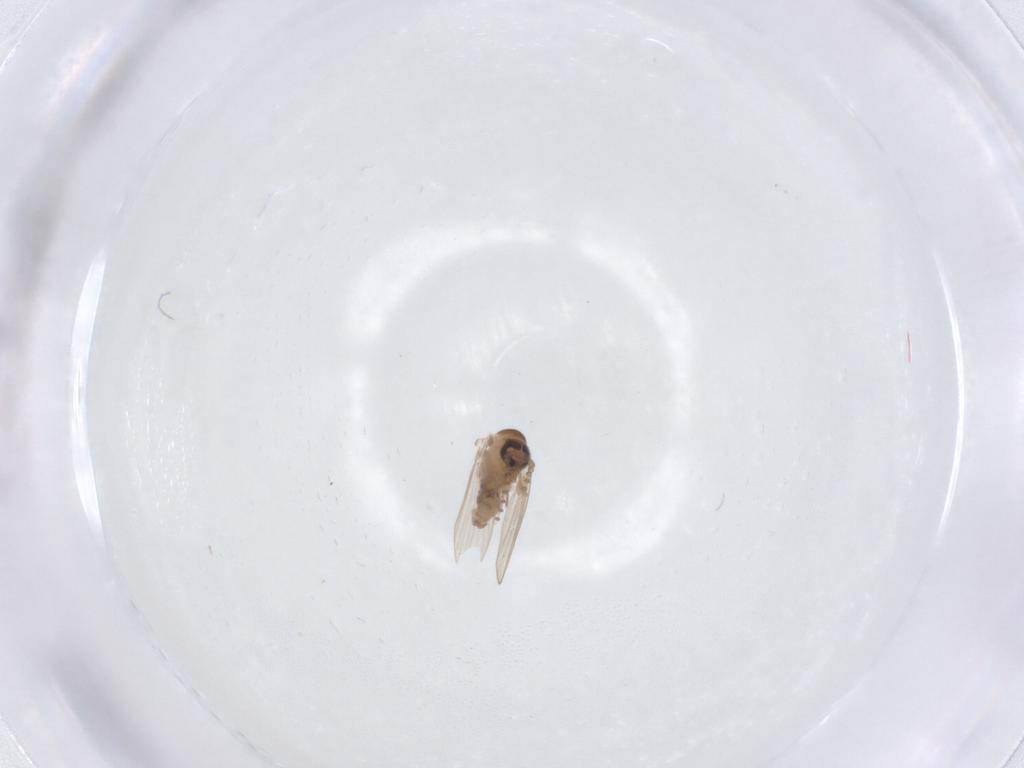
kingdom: Animalia
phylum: Arthropoda
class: Insecta
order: Diptera
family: Psychodidae
